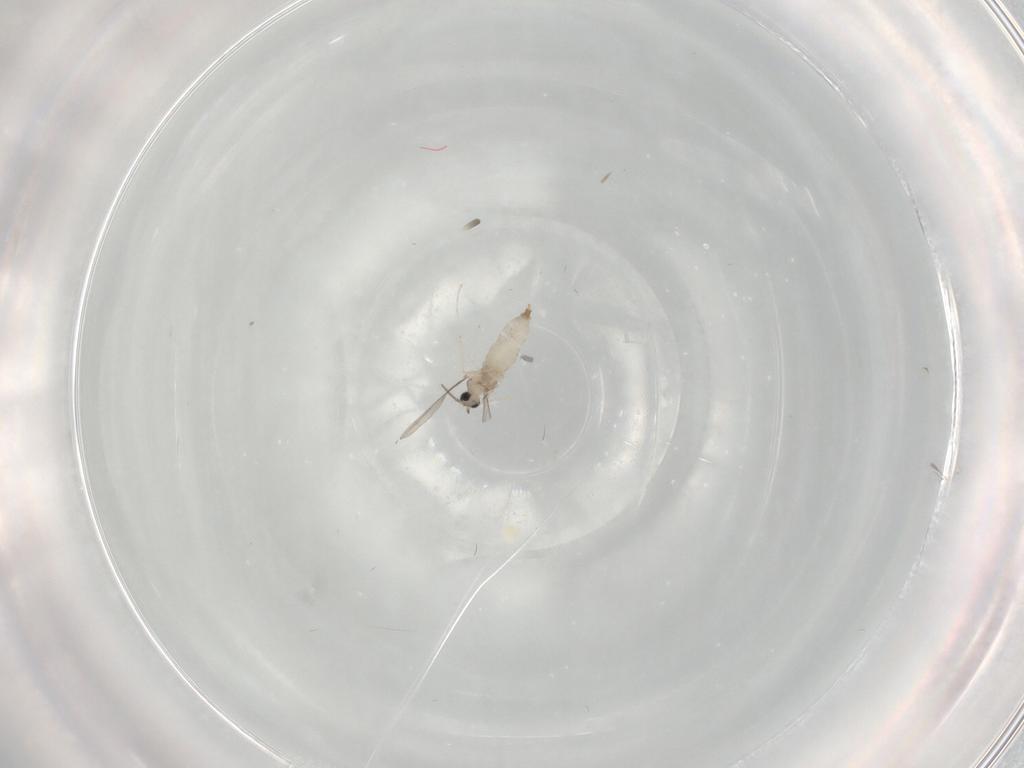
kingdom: Animalia
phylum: Arthropoda
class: Insecta
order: Diptera
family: Cecidomyiidae
